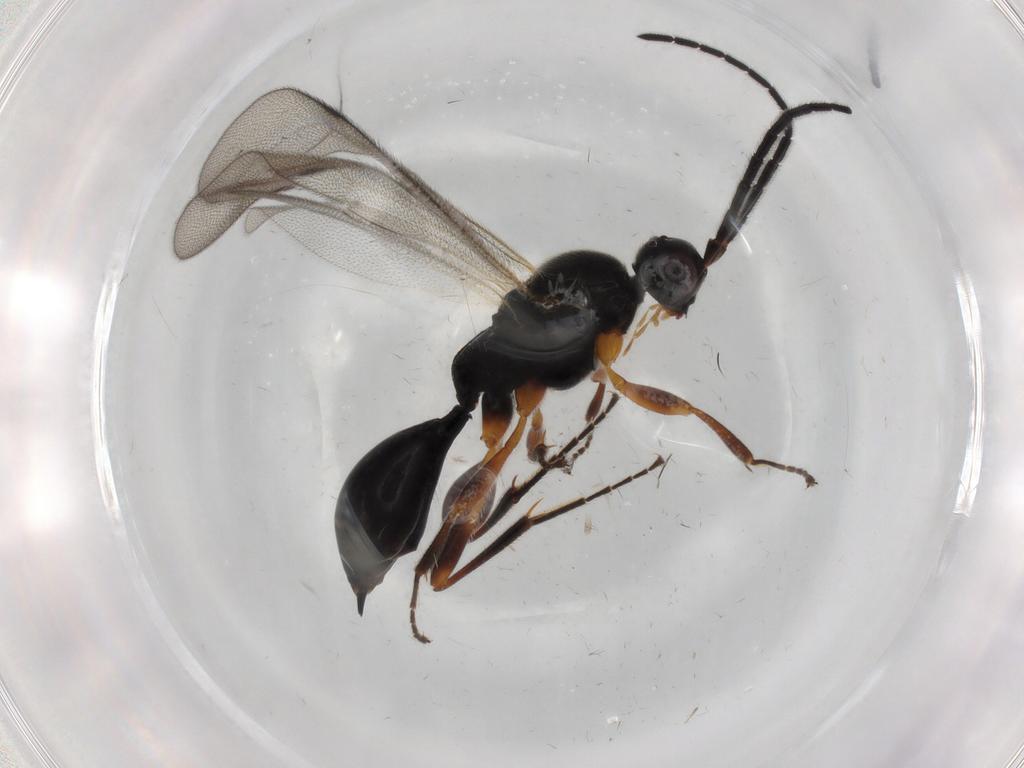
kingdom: Animalia
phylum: Arthropoda
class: Insecta
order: Hymenoptera
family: Proctotrupidae
